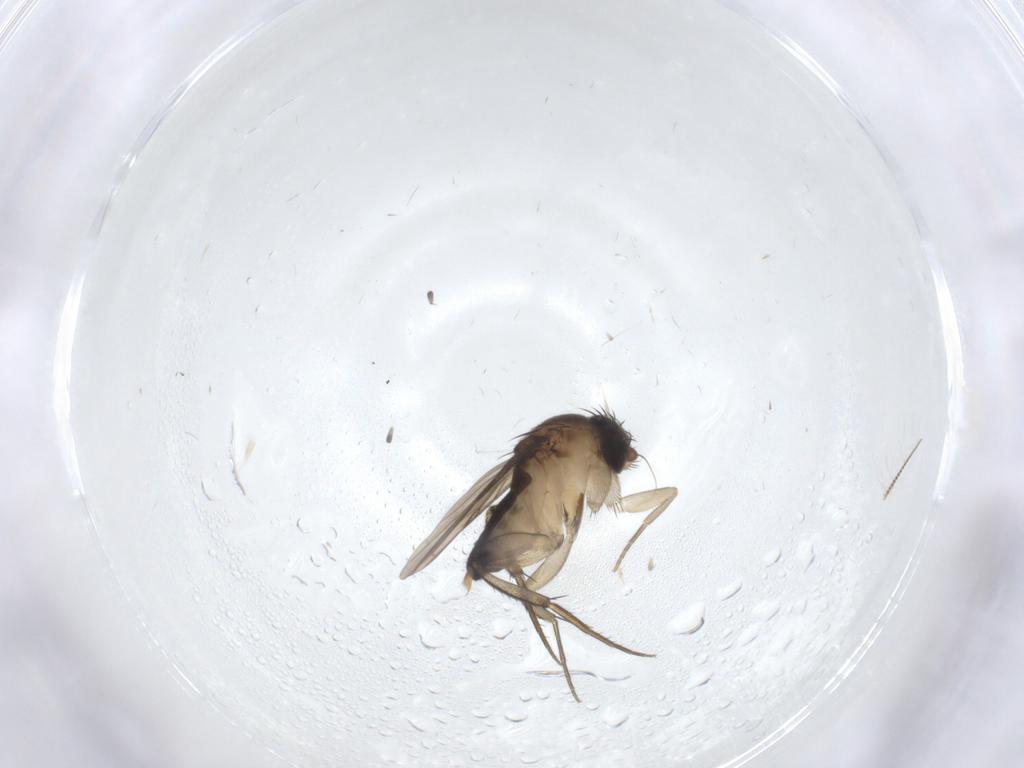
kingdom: Animalia
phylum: Arthropoda
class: Insecta
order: Diptera
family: Phoridae
